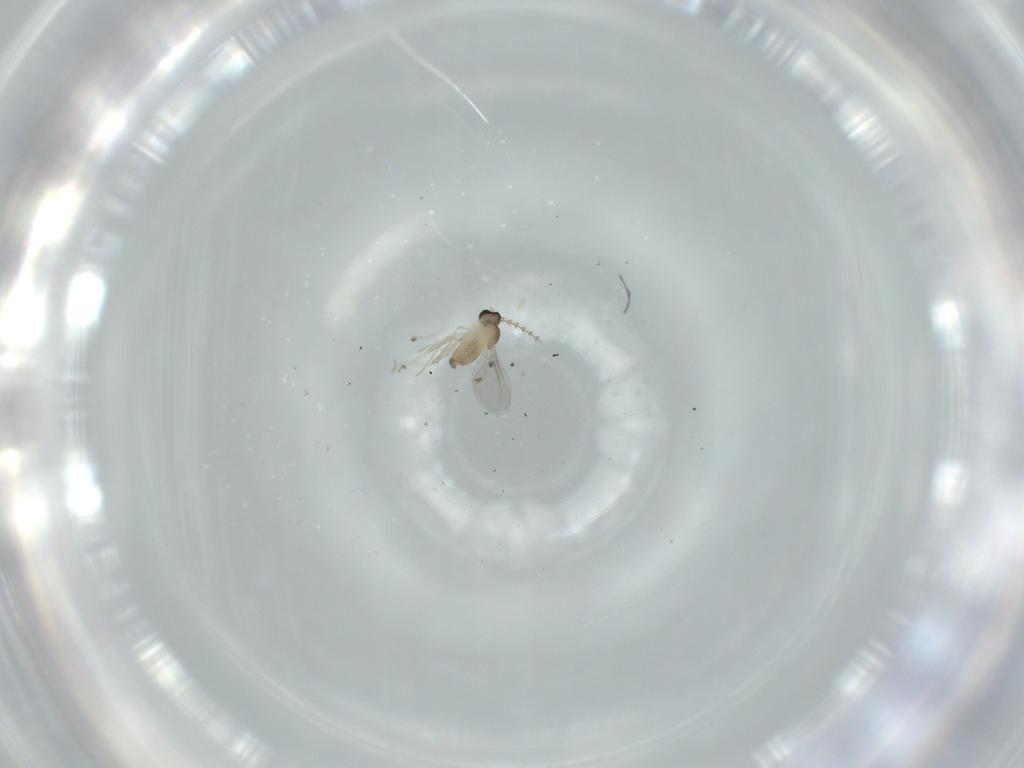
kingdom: Animalia
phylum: Arthropoda
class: Insecta
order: Diptera
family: Cecidomyiidae
